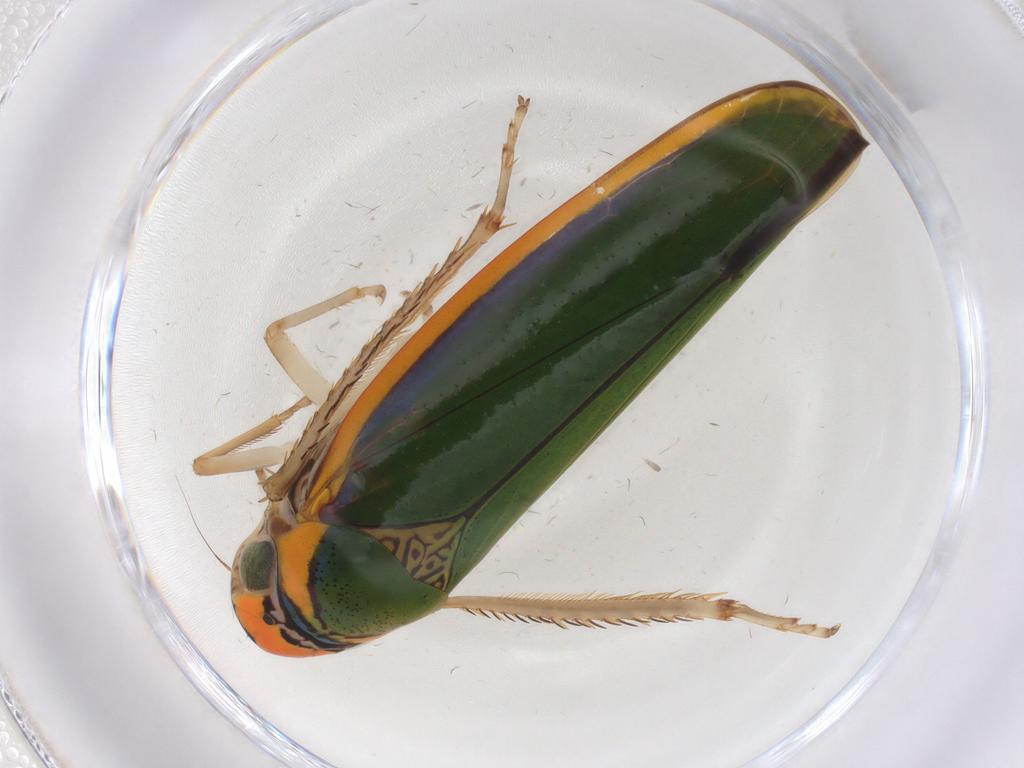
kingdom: Animalia
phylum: Arthropoda
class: Insecta
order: Hemiptera
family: Cicadellidae
